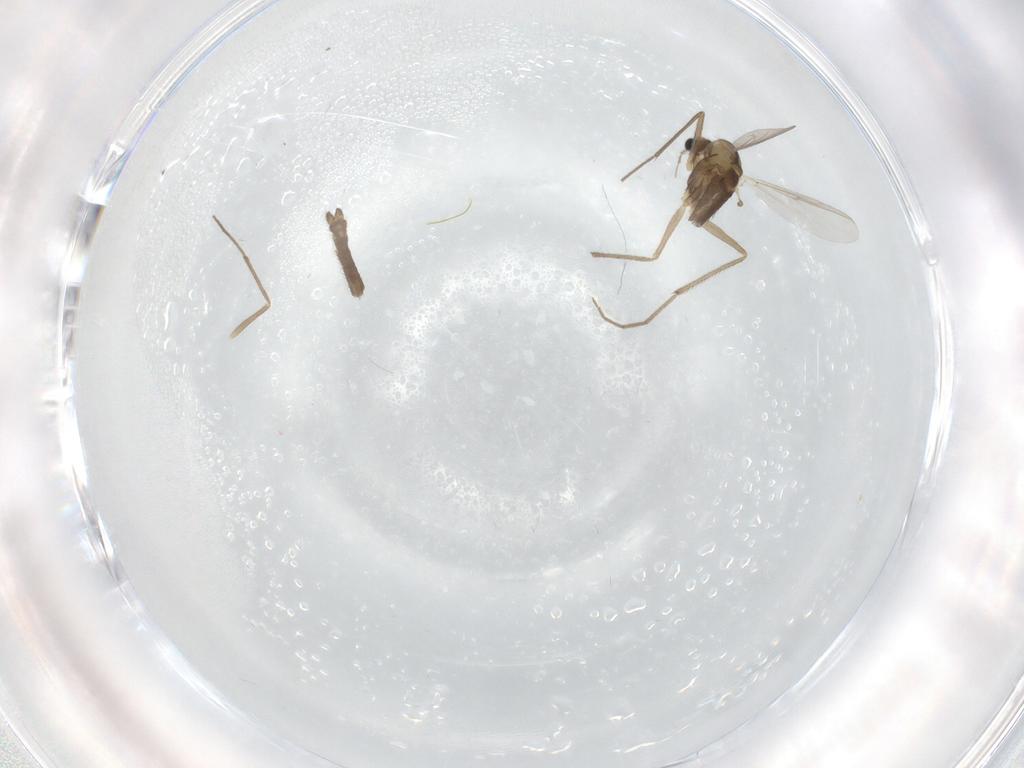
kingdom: Animalia
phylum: Arthropoda
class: Insecta
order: Diptera
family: Chironomidae
